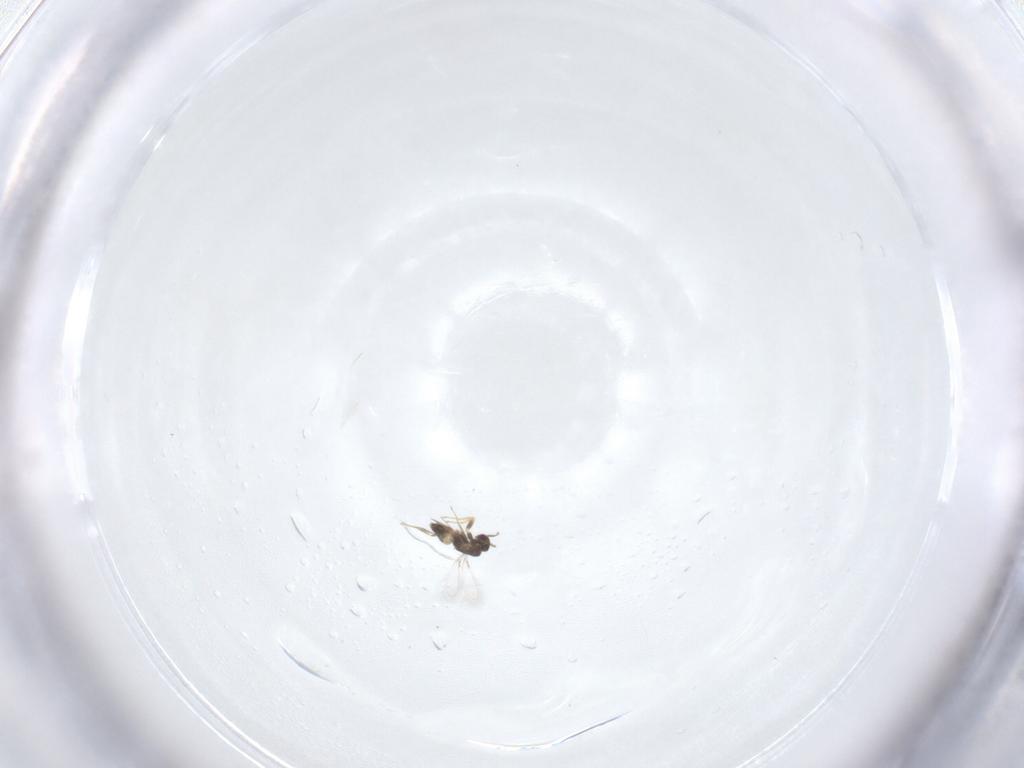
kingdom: Animalia
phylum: Arthropoda
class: Insecta
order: Hymenoptera
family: Mymaridae
